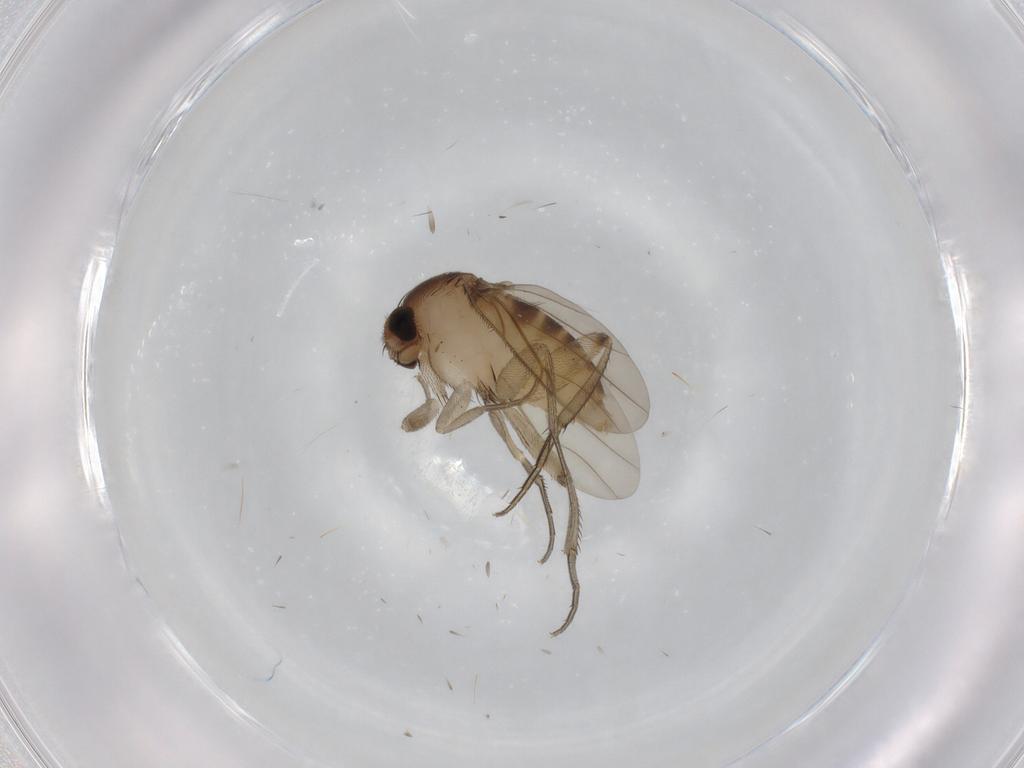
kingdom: Animalia
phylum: Arthropoda
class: Insecta
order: Diptera
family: Phoridae
